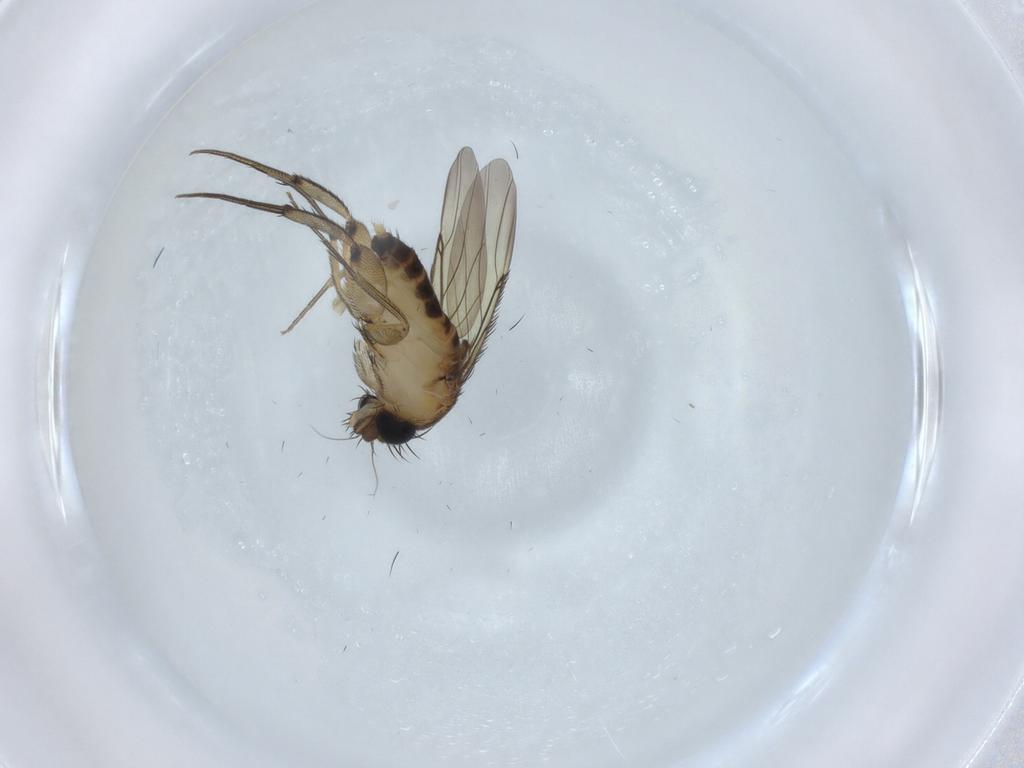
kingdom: Animalia
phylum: Arthropoda
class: Insecta
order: Diptera
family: Phoridae
